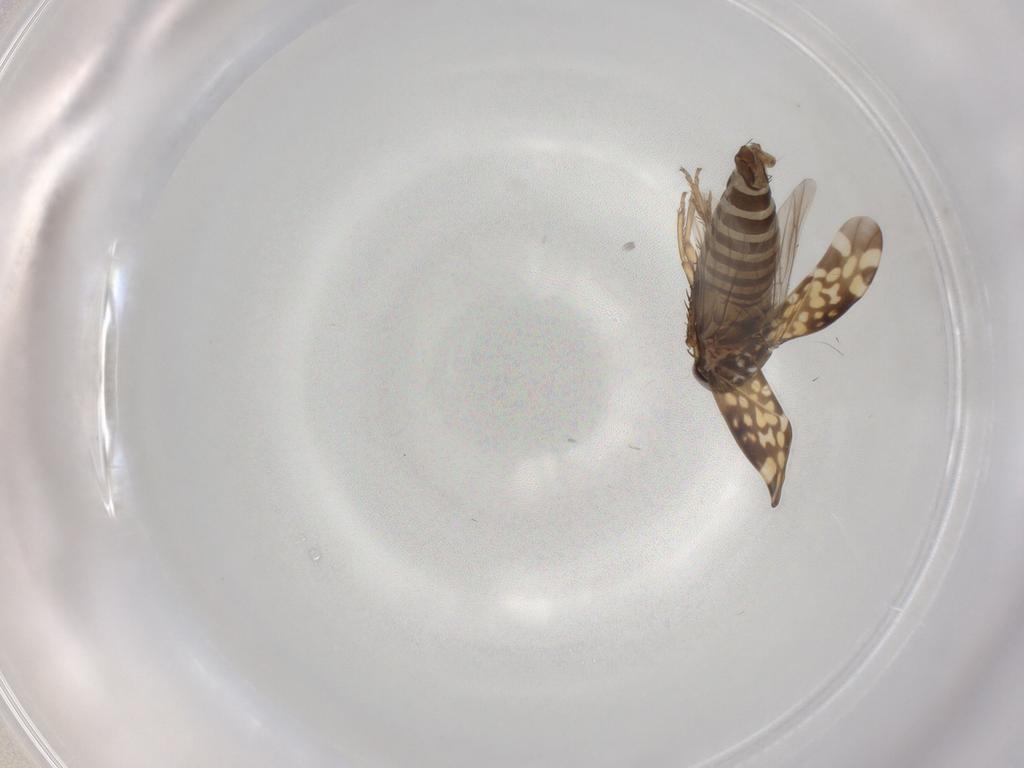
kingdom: Animalia
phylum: Arthropoda
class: Insecta
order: Hemiptera
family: Cicadellidae
